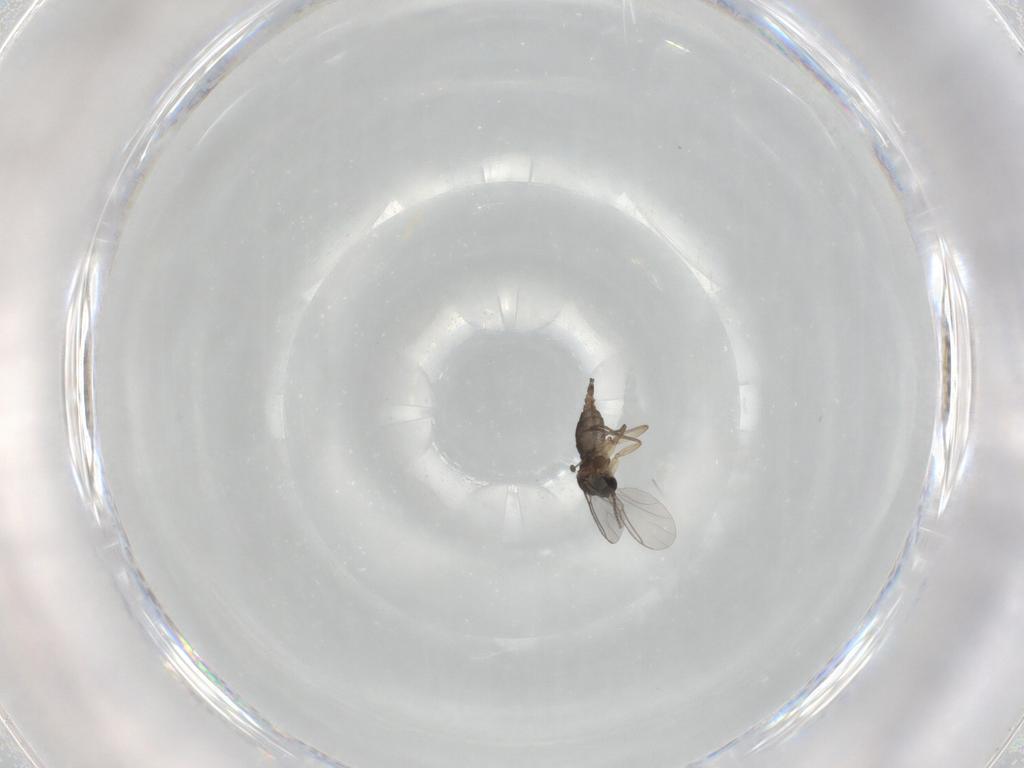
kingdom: Animalia
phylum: Arthropoda
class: Insecta
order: Diptera
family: Sciaridae
